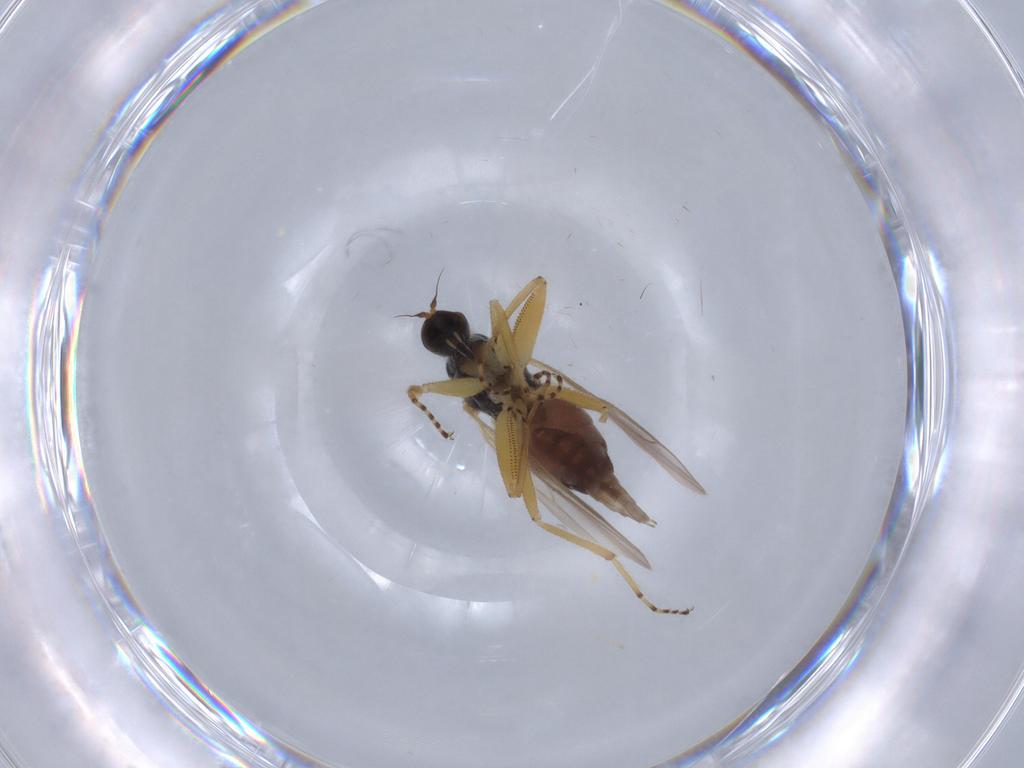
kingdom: Animalia
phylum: Arthropoda
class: Insecta
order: Diptera
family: Hybotidae
